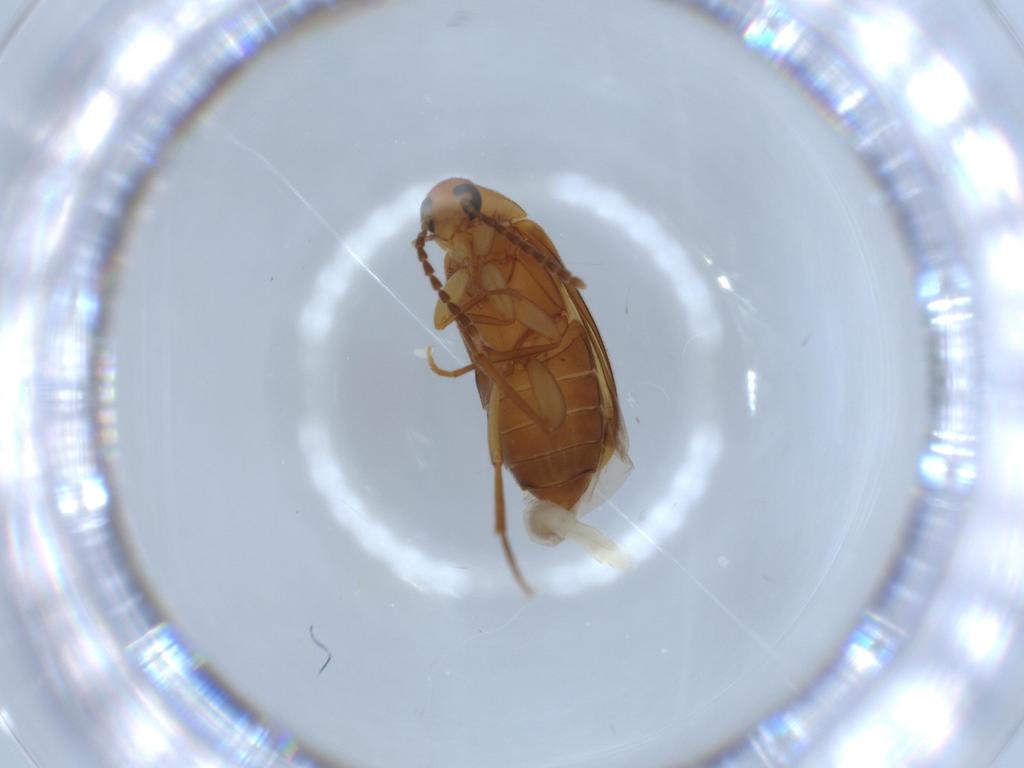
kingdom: Animalia
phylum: Arthropoda
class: Insecta
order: Coleoptera
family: Scraptiidae
